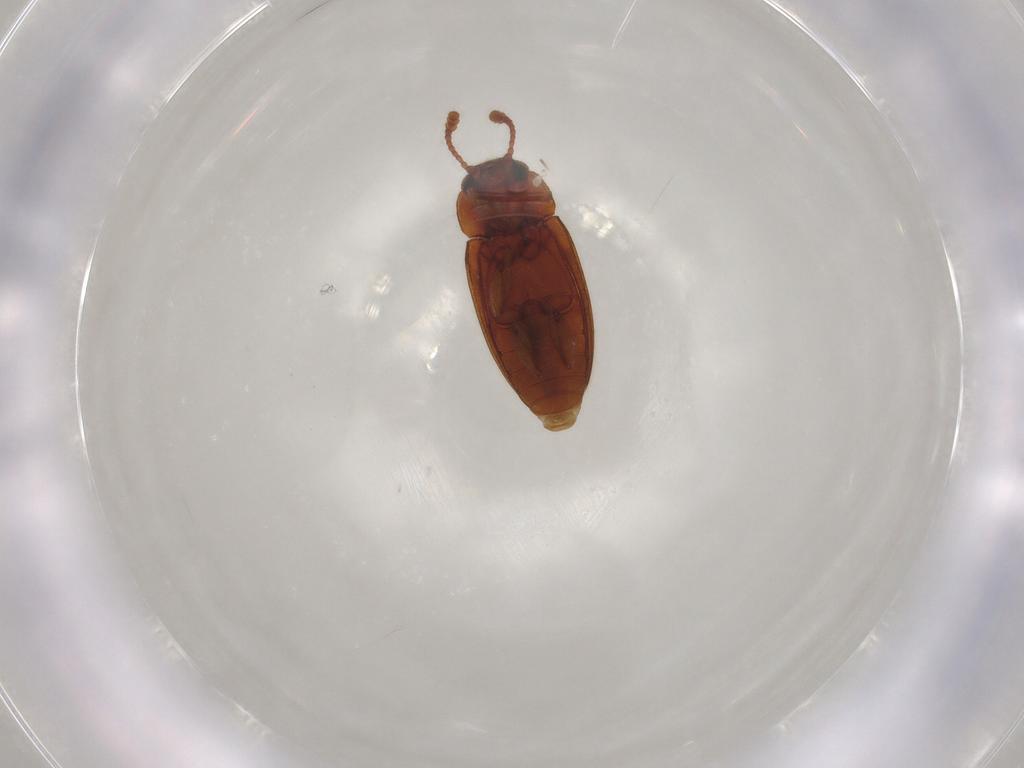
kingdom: Animalia
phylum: Arthropoda
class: Insecta
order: Coleoptera
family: Erotylidae
